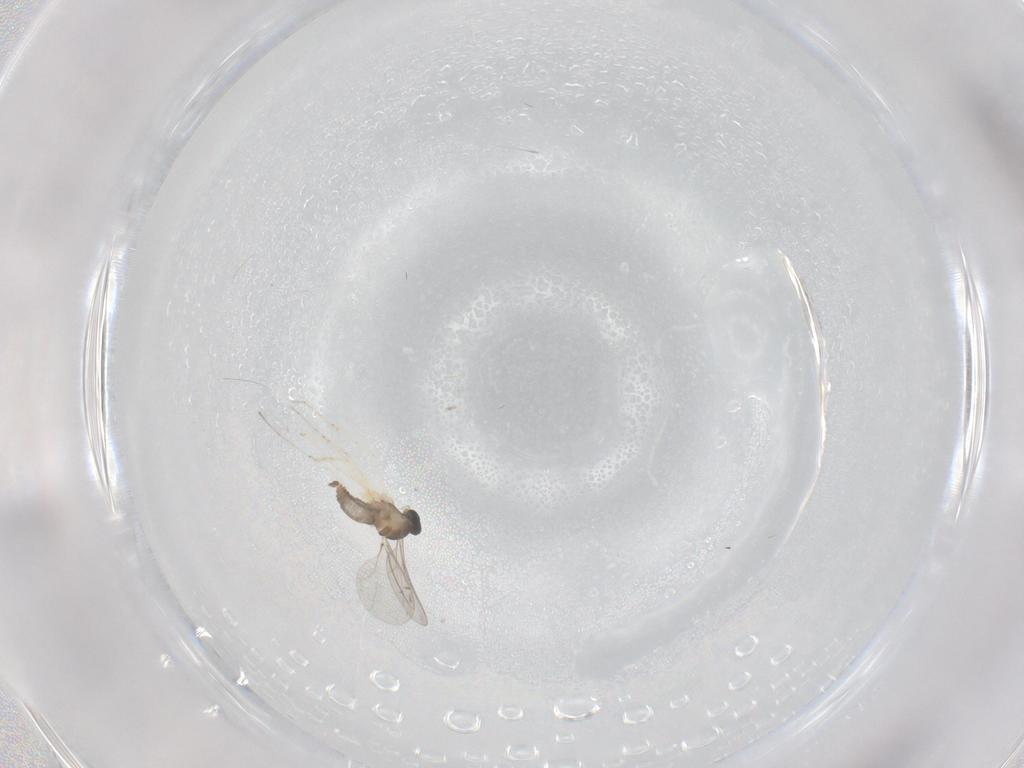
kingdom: Animalia
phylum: Arthropoda
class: Insecta
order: Diptera
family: Cecidomyiidae
